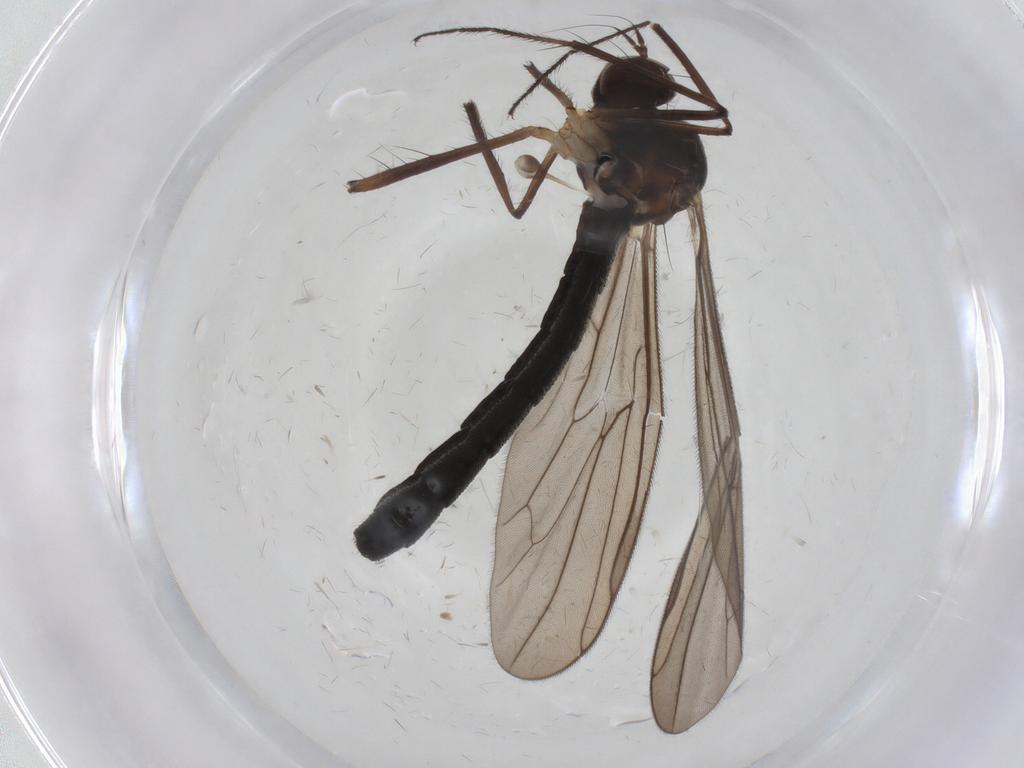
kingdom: Animalia
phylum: Arthropoda
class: Insecta
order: Diptera
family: Hybotidae
